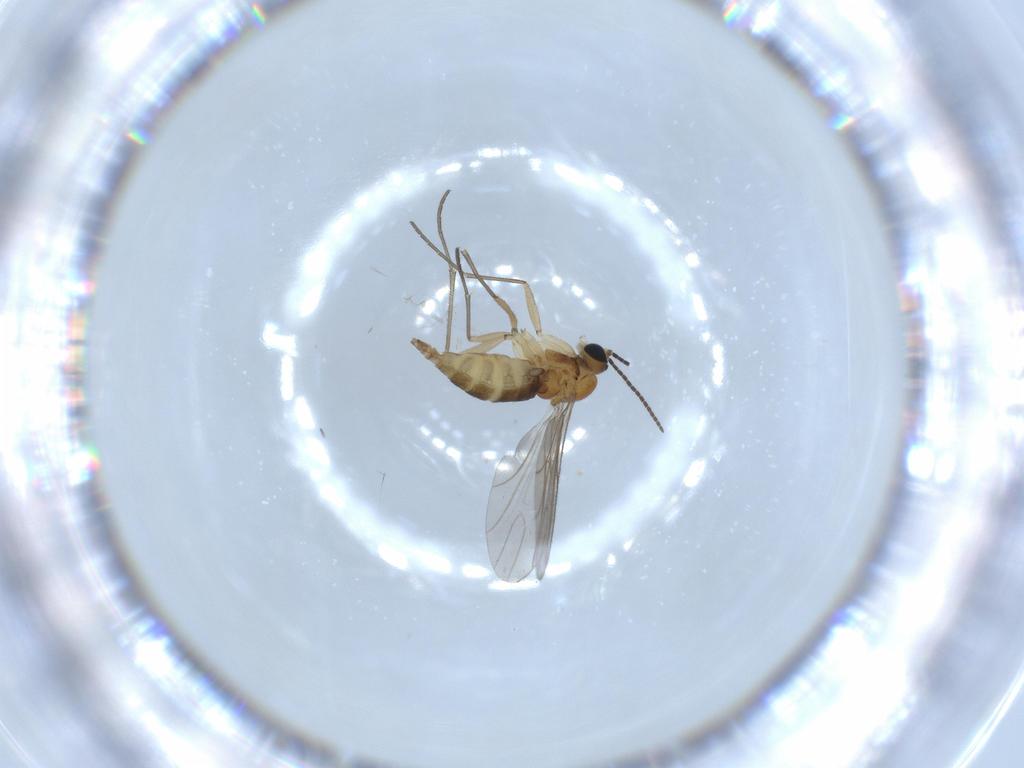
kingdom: Animalia
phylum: Arthropoda
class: Insecta
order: Diptera
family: Sciaridae
